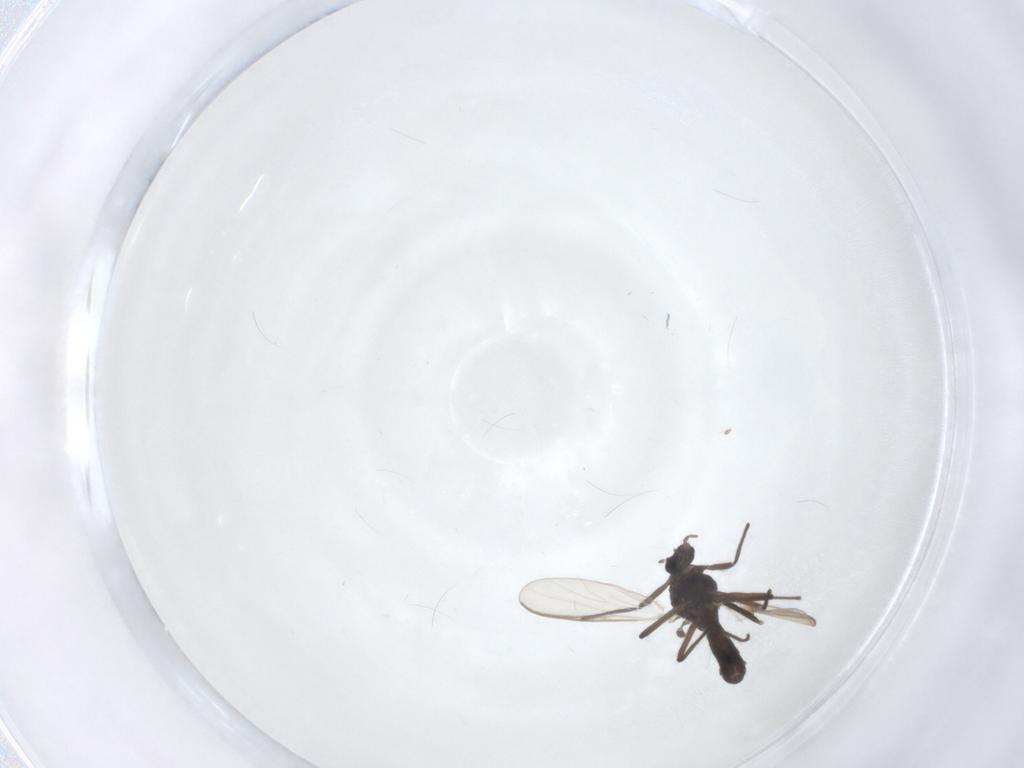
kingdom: Animalia
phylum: Arthropoda
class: Insecta
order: Diptera
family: Chironomidae
